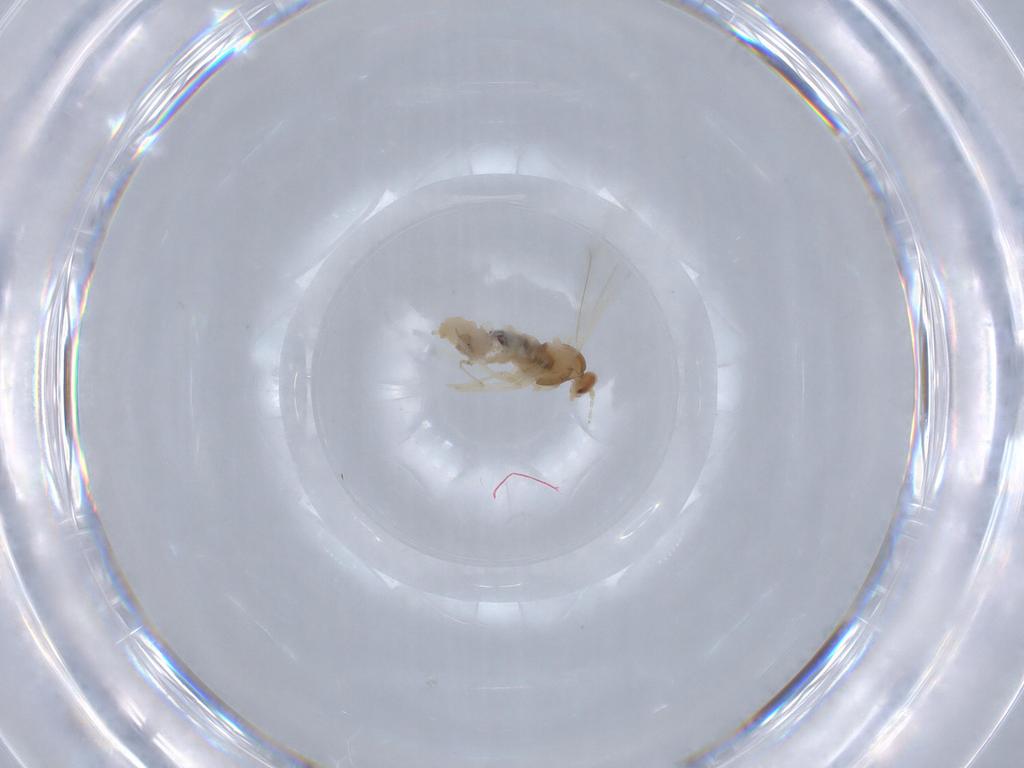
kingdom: Animalia
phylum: Arthropoda
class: Insecta
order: Diptera
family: Cecidomyiidae
